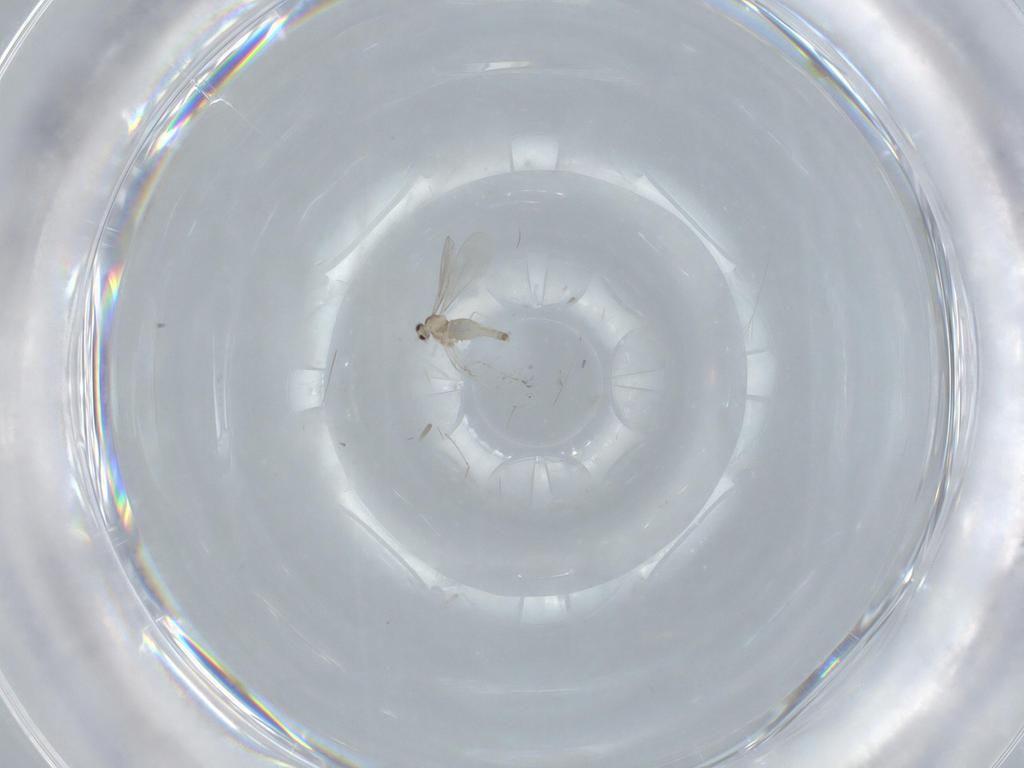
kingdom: Animalia
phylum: Arthropoda
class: Insecta
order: Diptera
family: Cecidomyiidae
